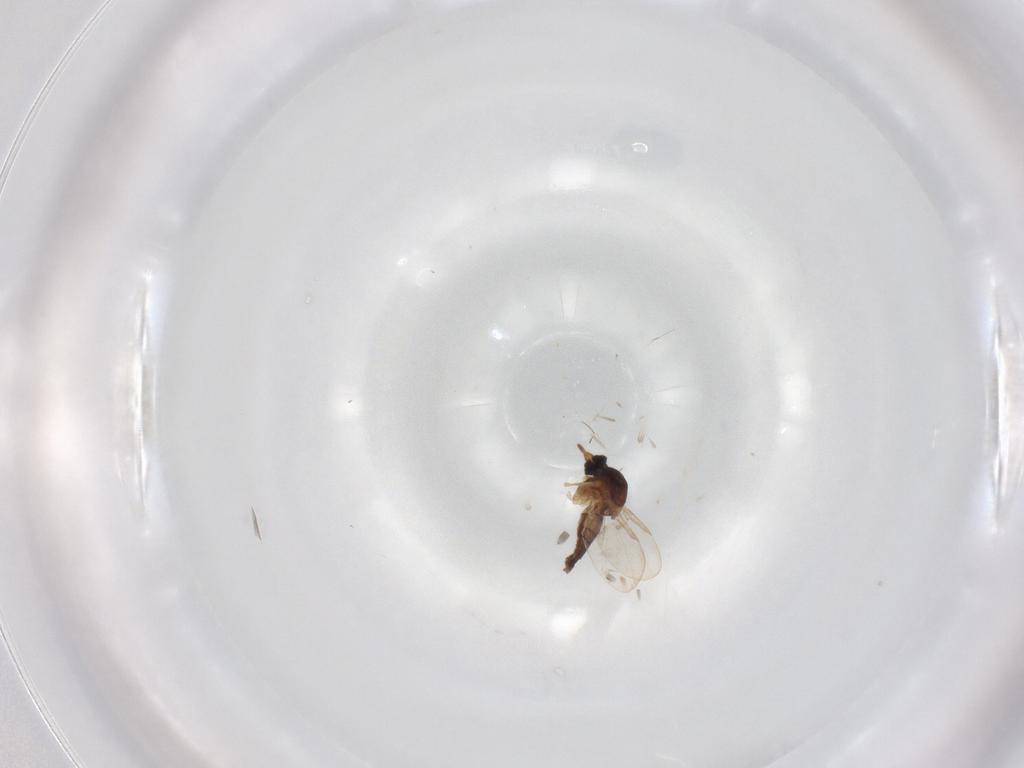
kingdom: Animalia
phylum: Arthropoda
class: Insecta
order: Diptera
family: Ceratopogonidae
